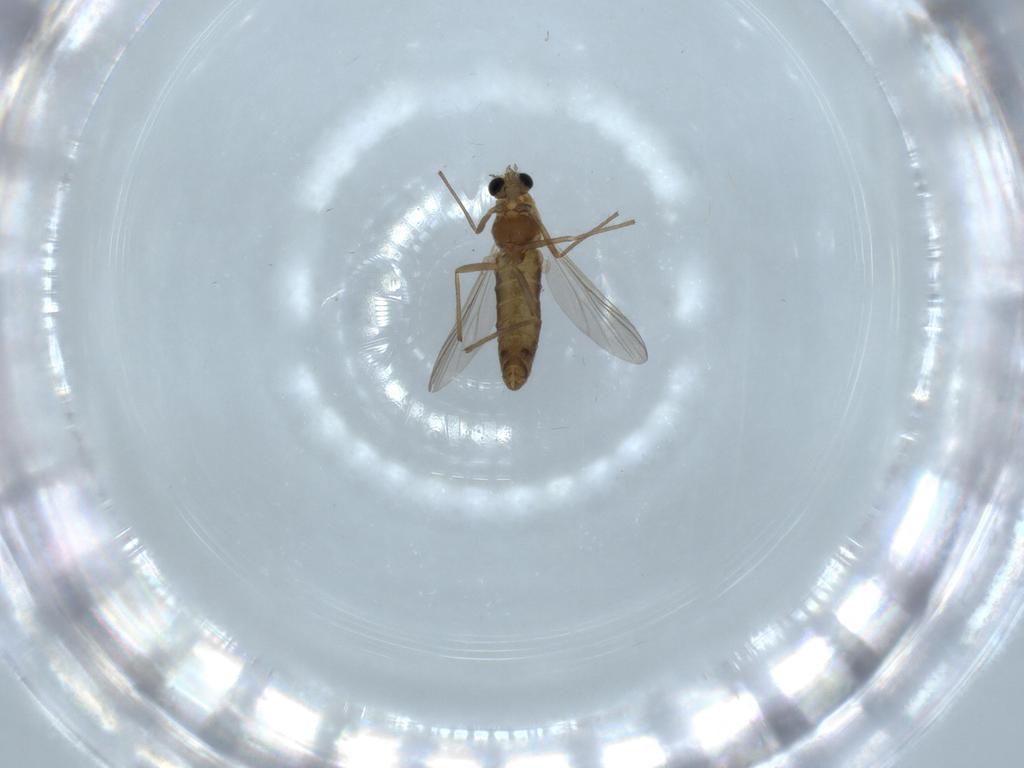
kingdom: Animalia
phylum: Arthropoda
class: Insecta
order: Diptera
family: Chironomidae
